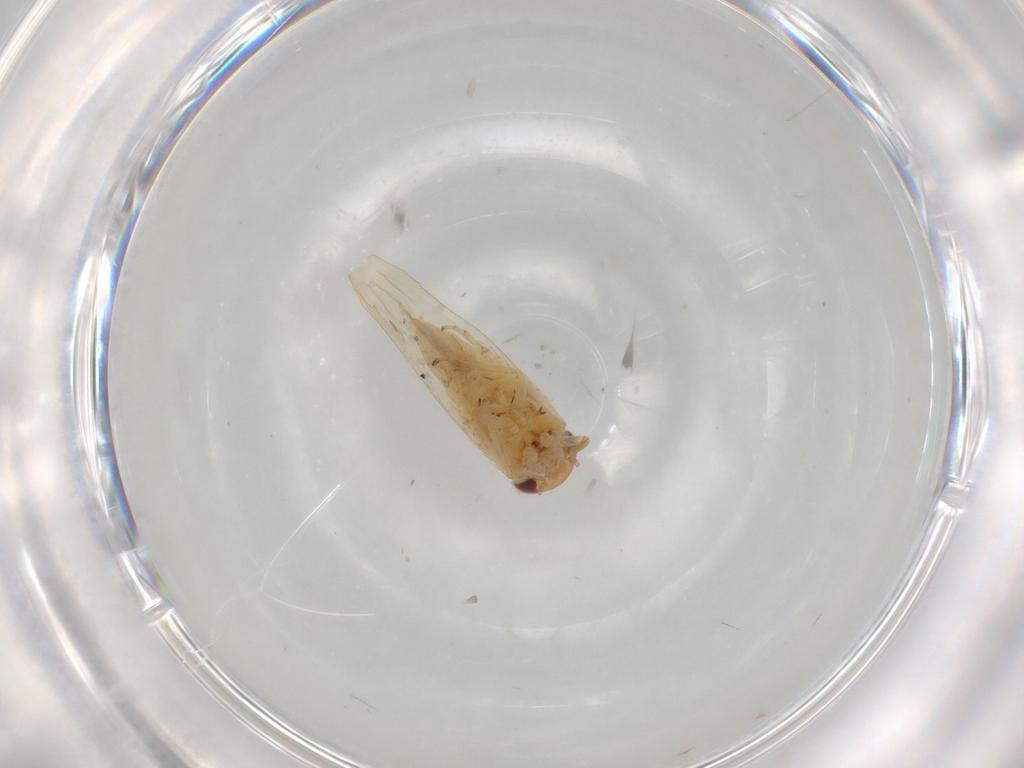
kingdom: Animalia
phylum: Arthropoda
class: Insecta
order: Hemiptera
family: Cicadellidae
